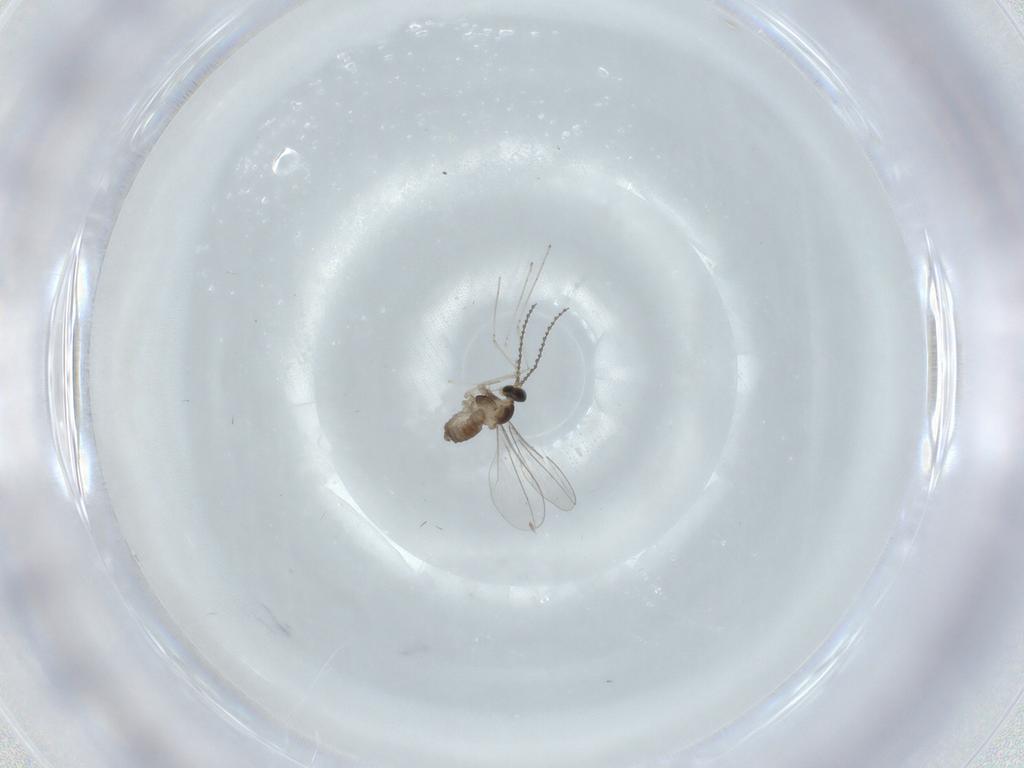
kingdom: Animalia
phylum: Arthropoda
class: Insecta
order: Diptera
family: Cecidomyiidae
